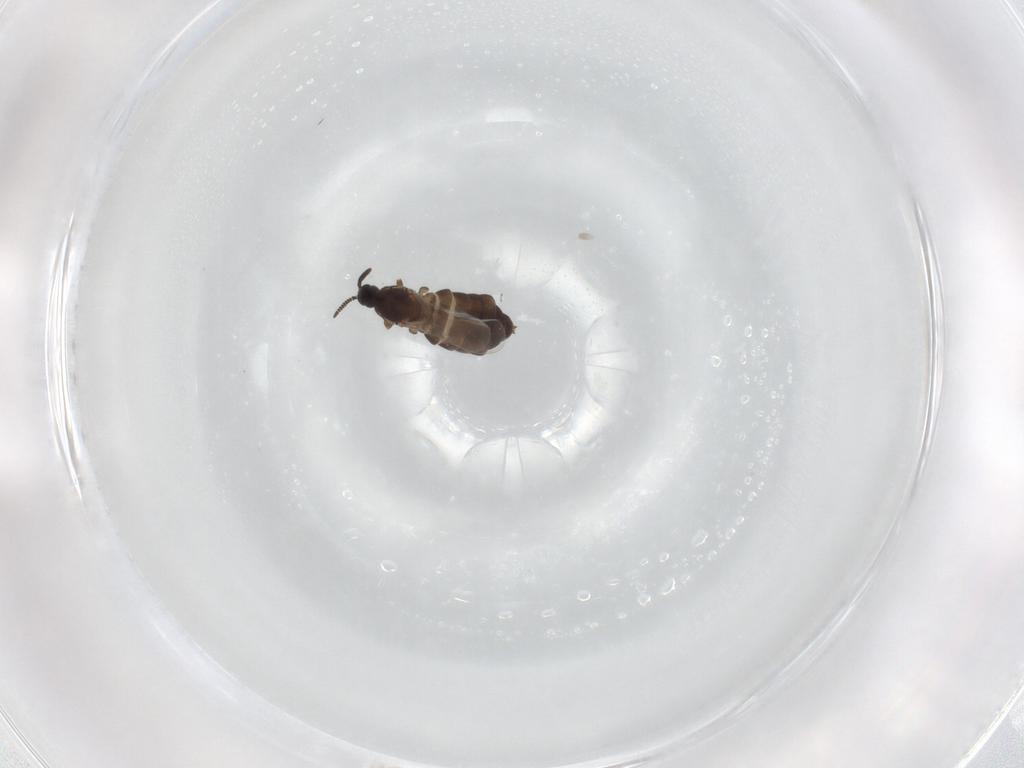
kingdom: Animalia
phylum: Arthropoda
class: Insecta
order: Diptera
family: Scatopsidae
